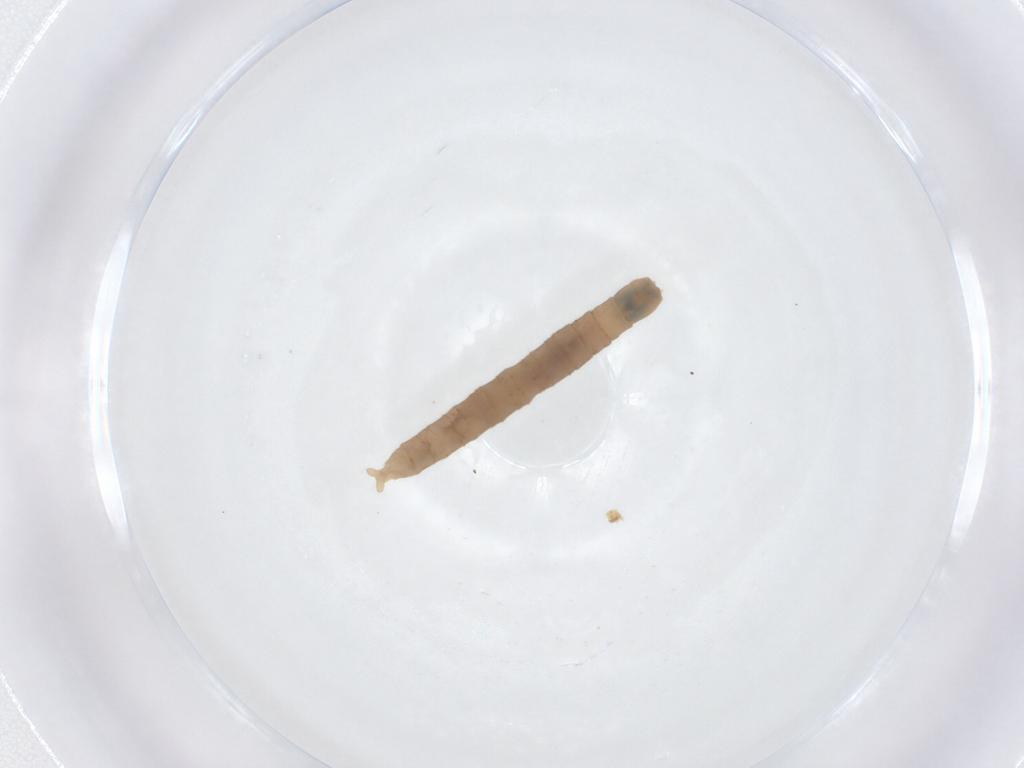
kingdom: Animalia
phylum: Arthropoda
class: Insecta
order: Diptera
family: Pediciidae
